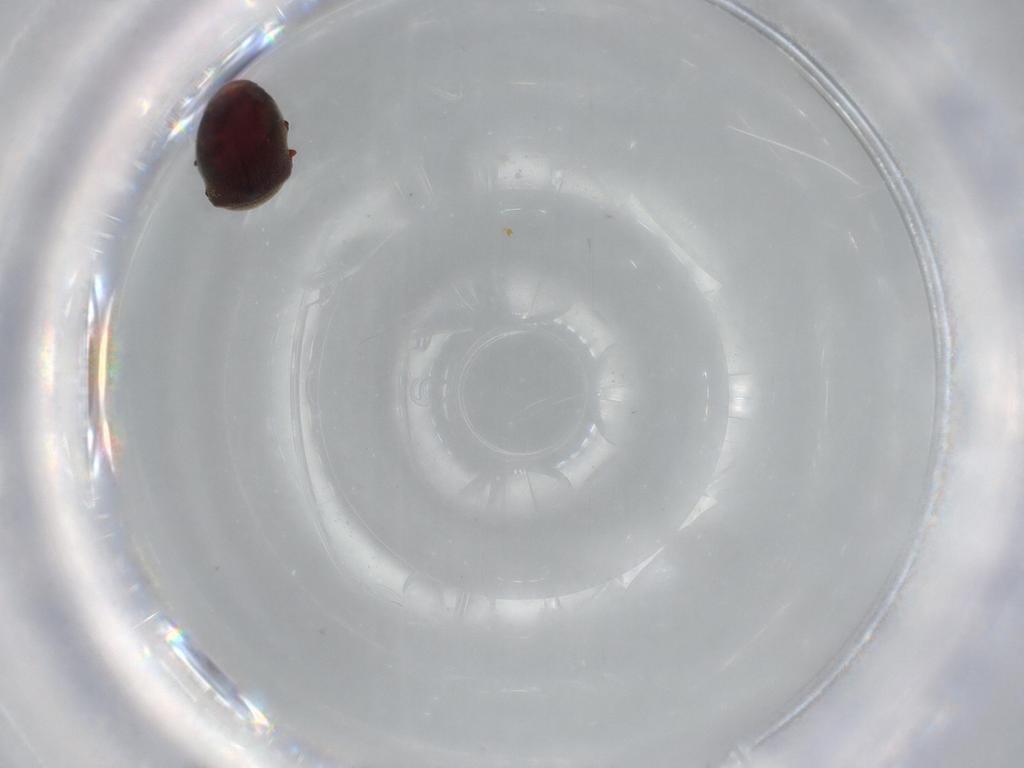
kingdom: Animalia
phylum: Arthropoda
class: Insecta
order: Coleoptera
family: Ptinidae
